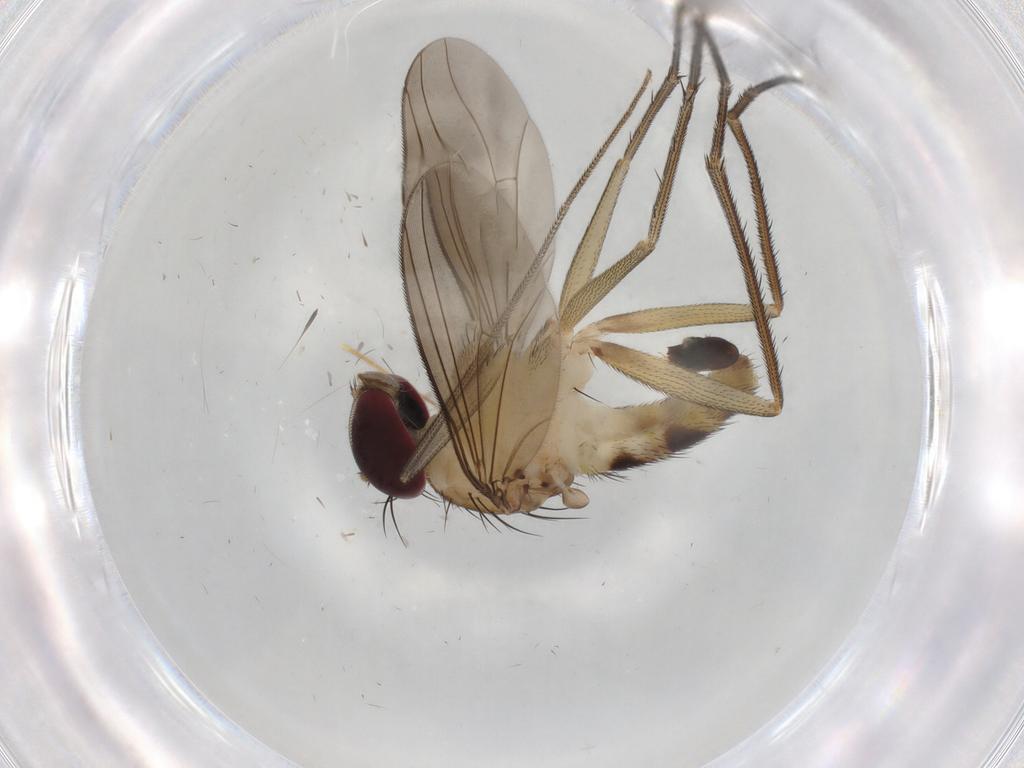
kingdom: Animalia
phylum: Arthropoda
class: Insecta
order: Diptera
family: Dolichopodidae
